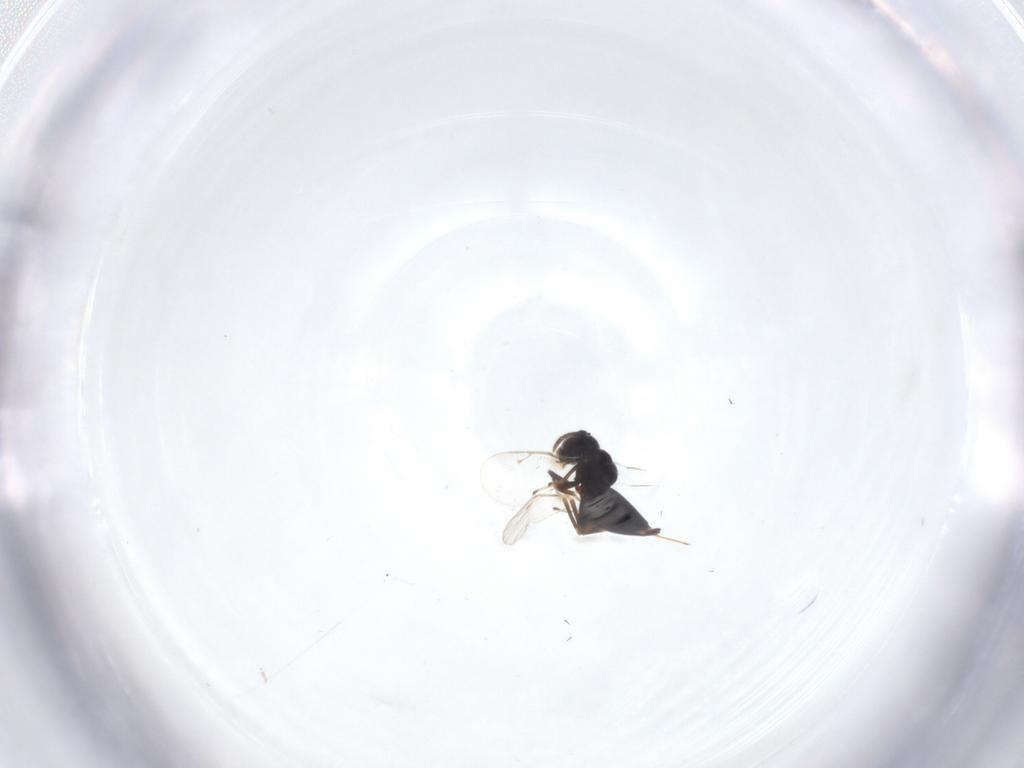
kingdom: Animalia
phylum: Arthropoda
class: Insecta
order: Hymenoptera
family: Pteromalidae
